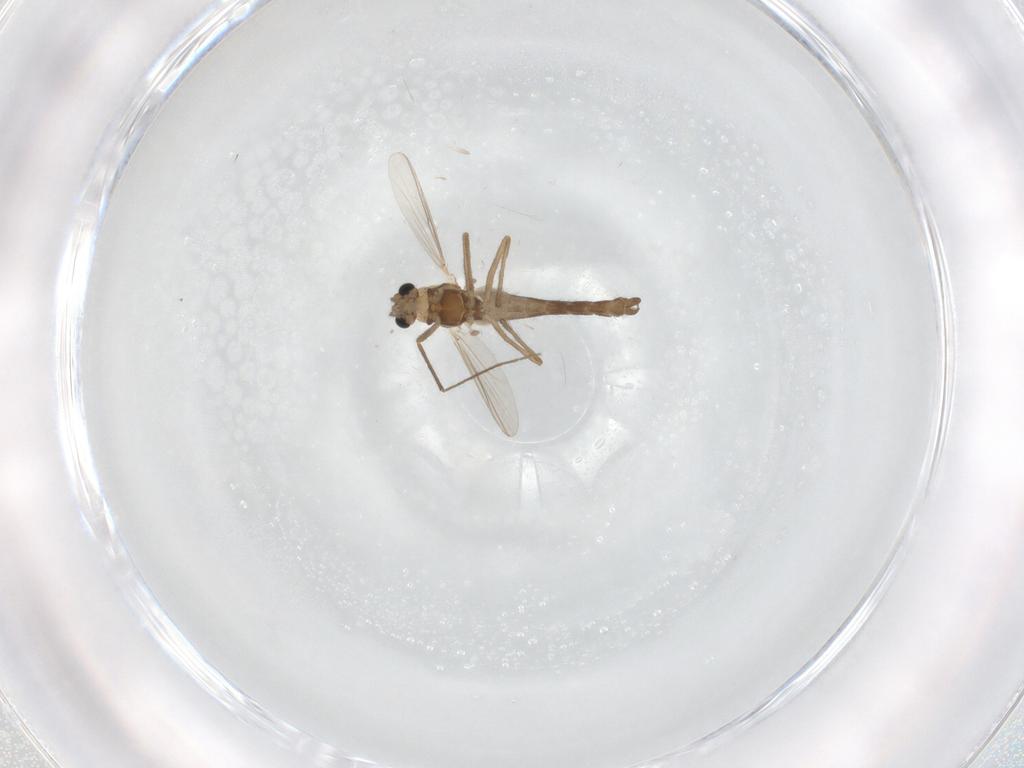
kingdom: Animalia
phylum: Arthropoda
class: Insecta
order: Diptera
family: Chironomidae
